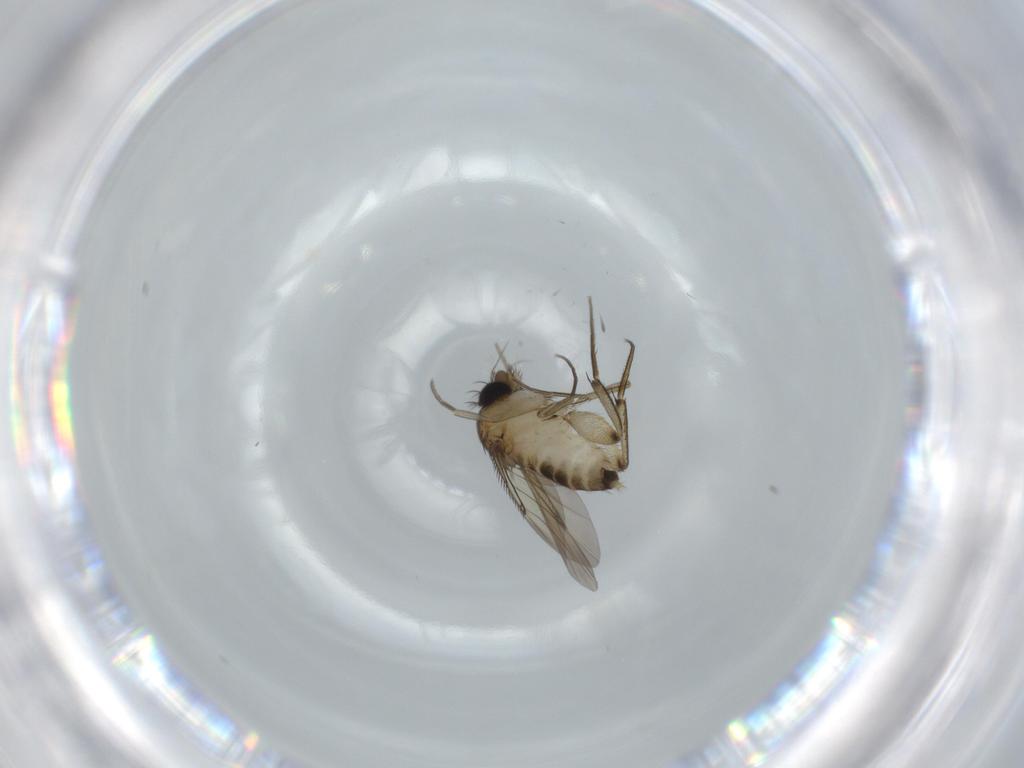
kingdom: Animalia
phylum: Arthropoda
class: Insecta
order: Diptera
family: Phoridae
